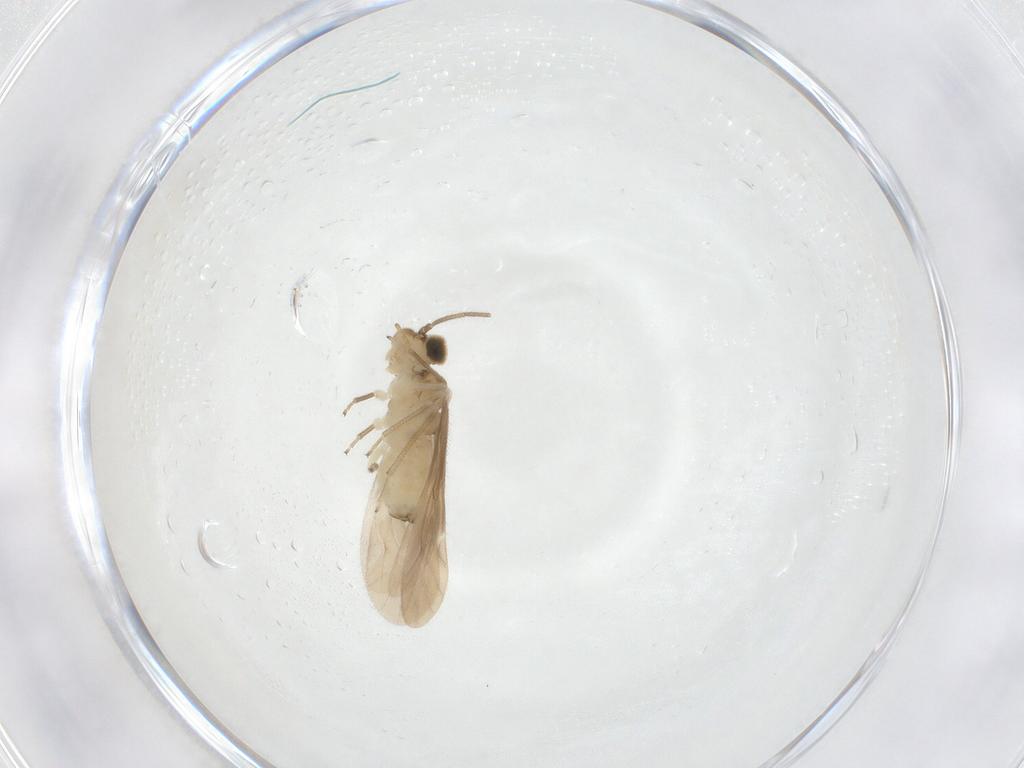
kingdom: Animalia
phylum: Arthropoda
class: Insecta
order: Psocodea
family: Caeciliusidae
